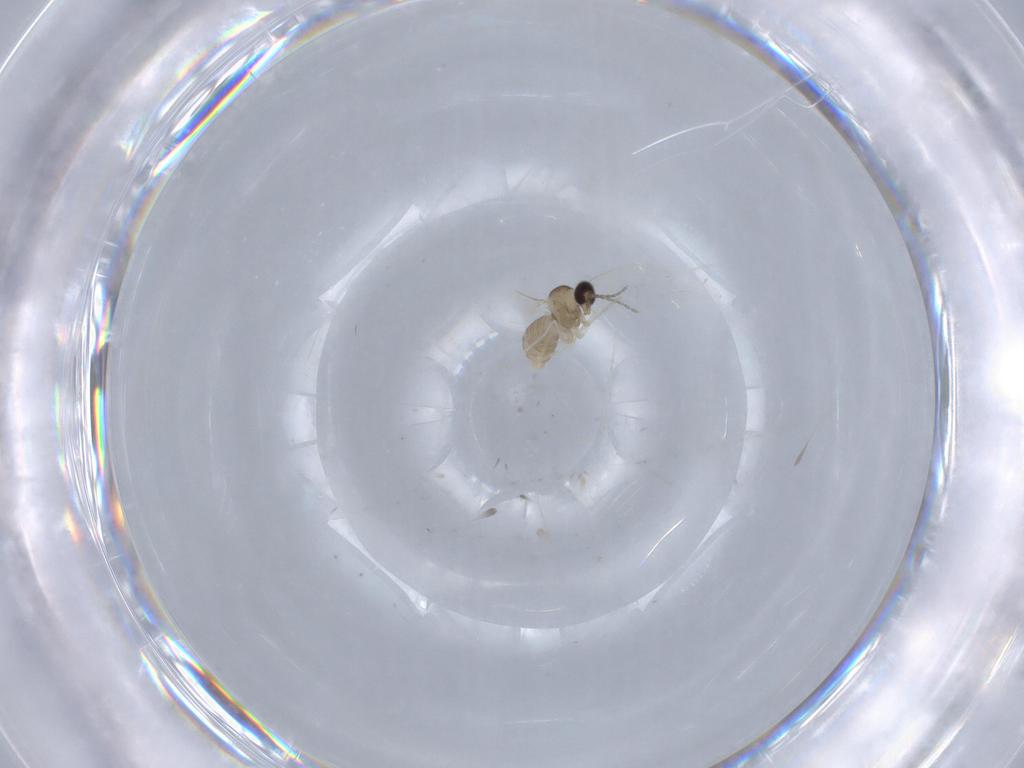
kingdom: Animalia
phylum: Arthropoda
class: Insecta
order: Diptera
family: Cecidomyiidae
